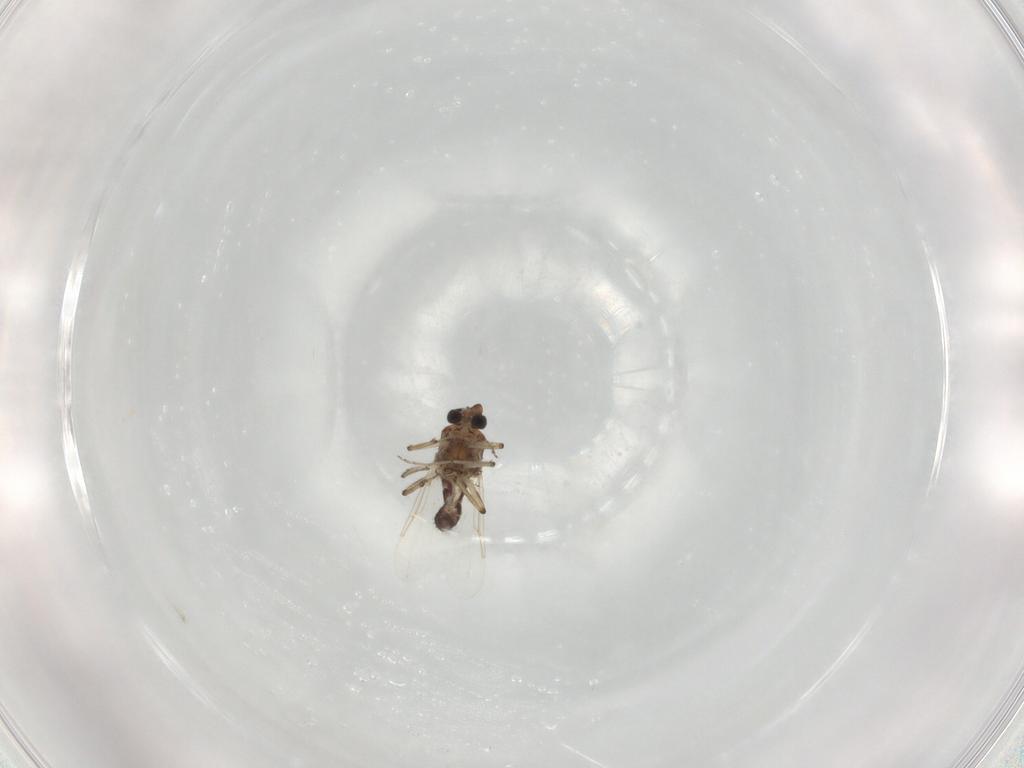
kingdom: Animalia
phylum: Arthropoda
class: Insecta
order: Diptera
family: Ceratopogonidae
